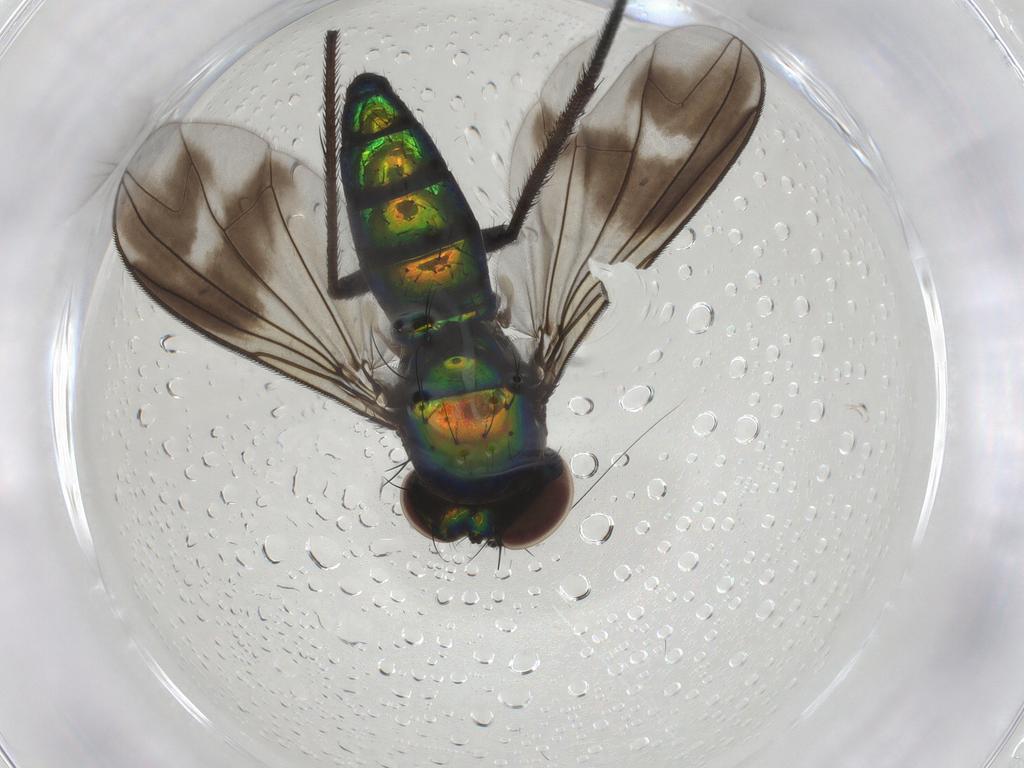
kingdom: Animalia
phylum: Arthropoda
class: Insecta
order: Diptera
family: Dolichopodidae
